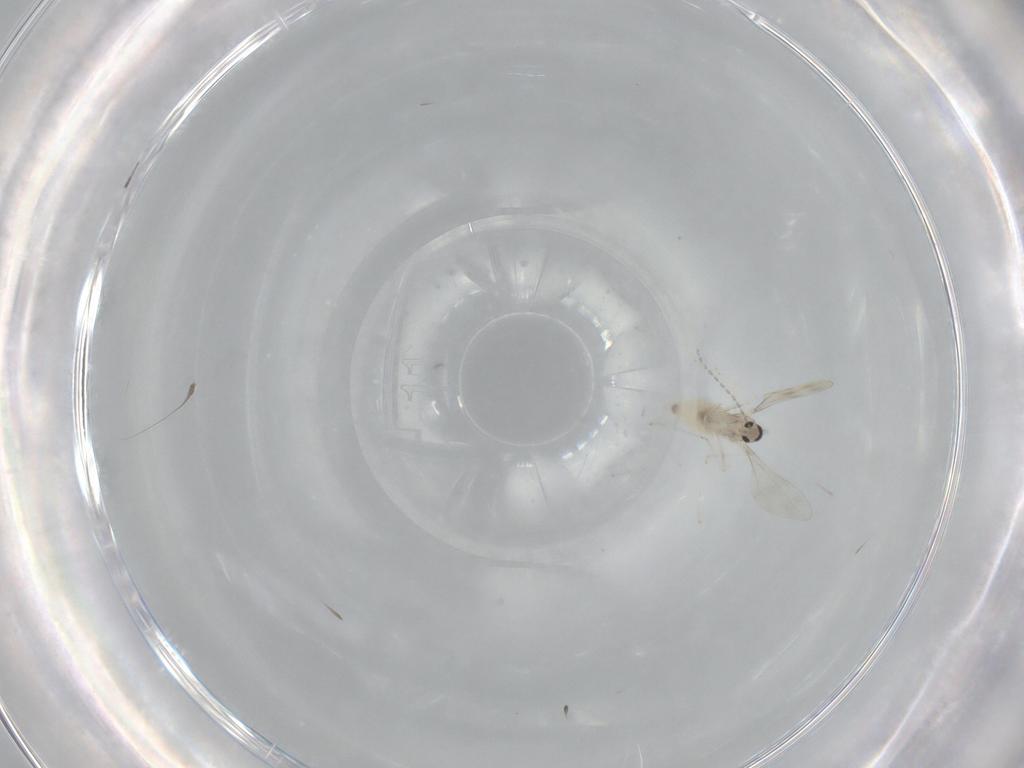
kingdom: Animalia
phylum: Arthropoda
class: Insecta
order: Diptera
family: Cecidomyiidae
